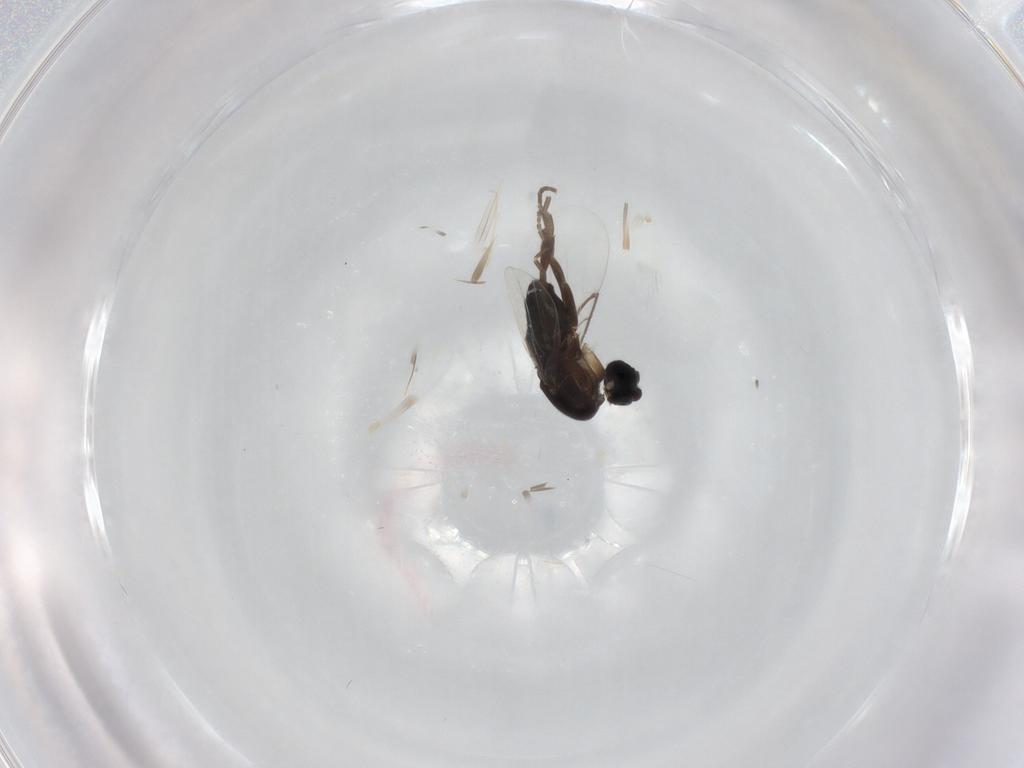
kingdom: Animalia
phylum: Arthropoda
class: Insecta
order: Diptera
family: Phoridae
